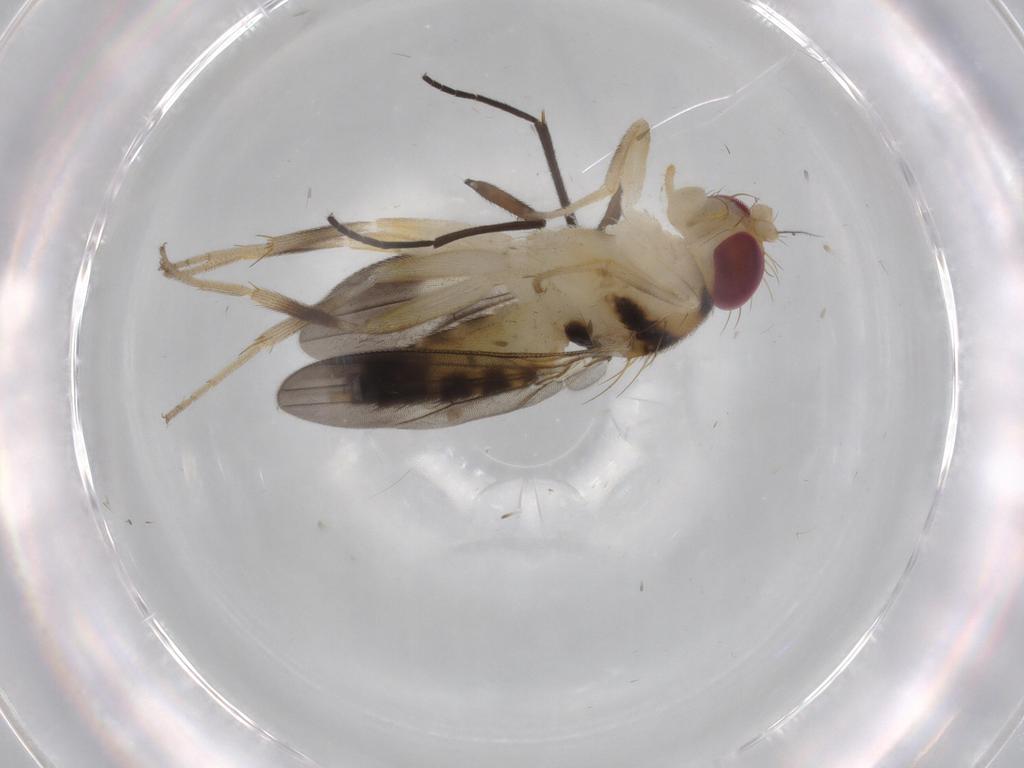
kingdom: Animalia
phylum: Arthropoda
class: Insecta
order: Diptera
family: Clusiidae
